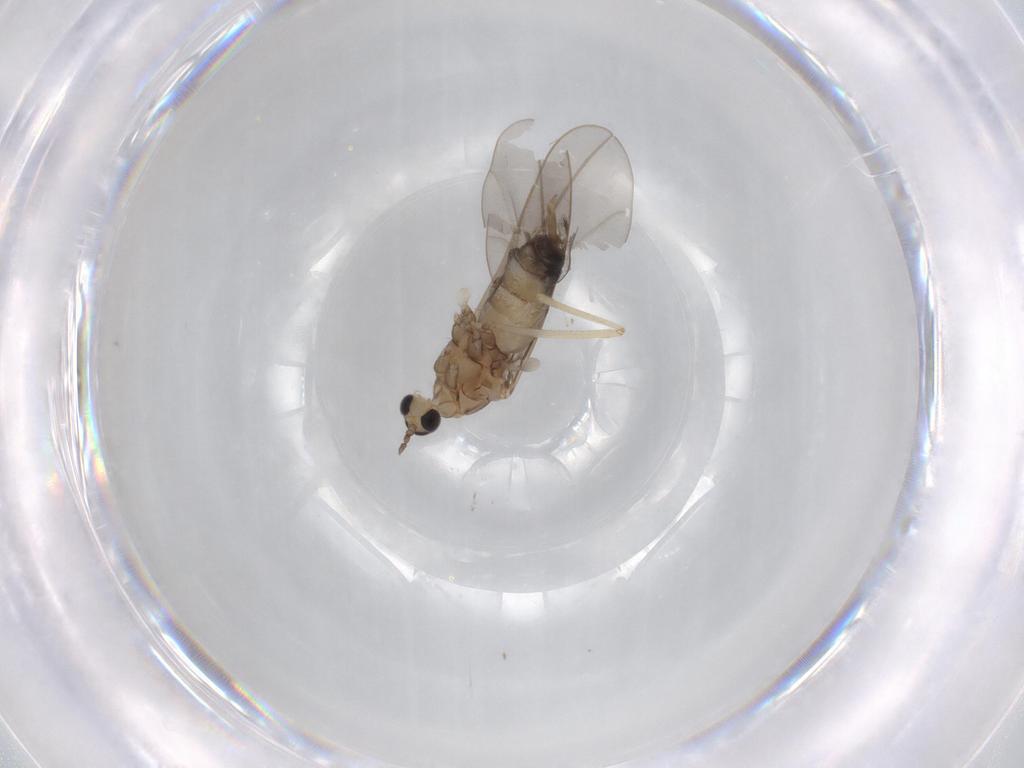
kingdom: Animalia
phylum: Arthropoda
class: Insecta
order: Diptera
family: Cecidomyiidae
